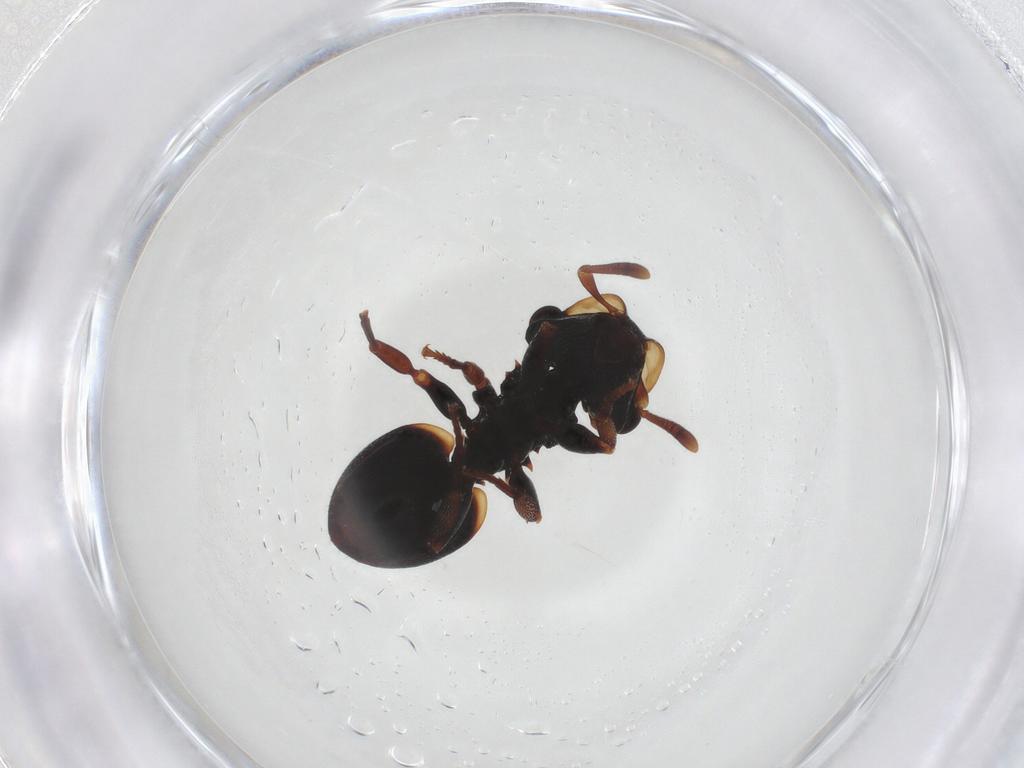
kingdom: Animalia
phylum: Arthropoda
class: Insecta
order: Hymenoptera
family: Formicidae
